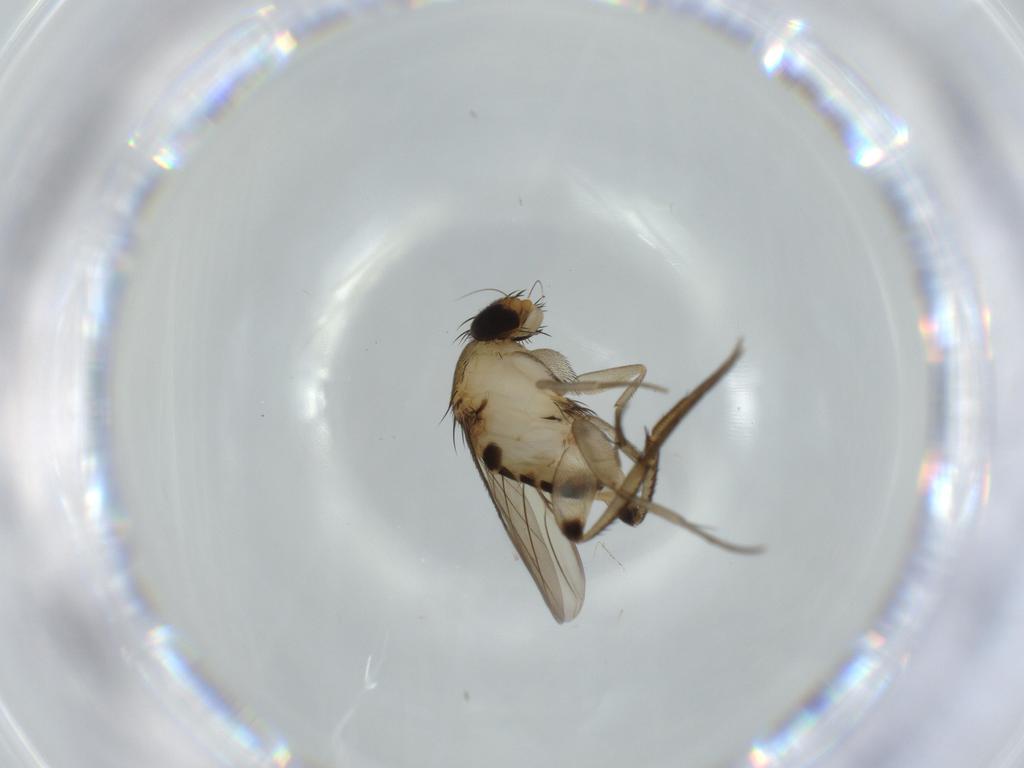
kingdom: Animalia
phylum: Arthropoda
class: Insecta
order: Diptera
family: Phoridae
